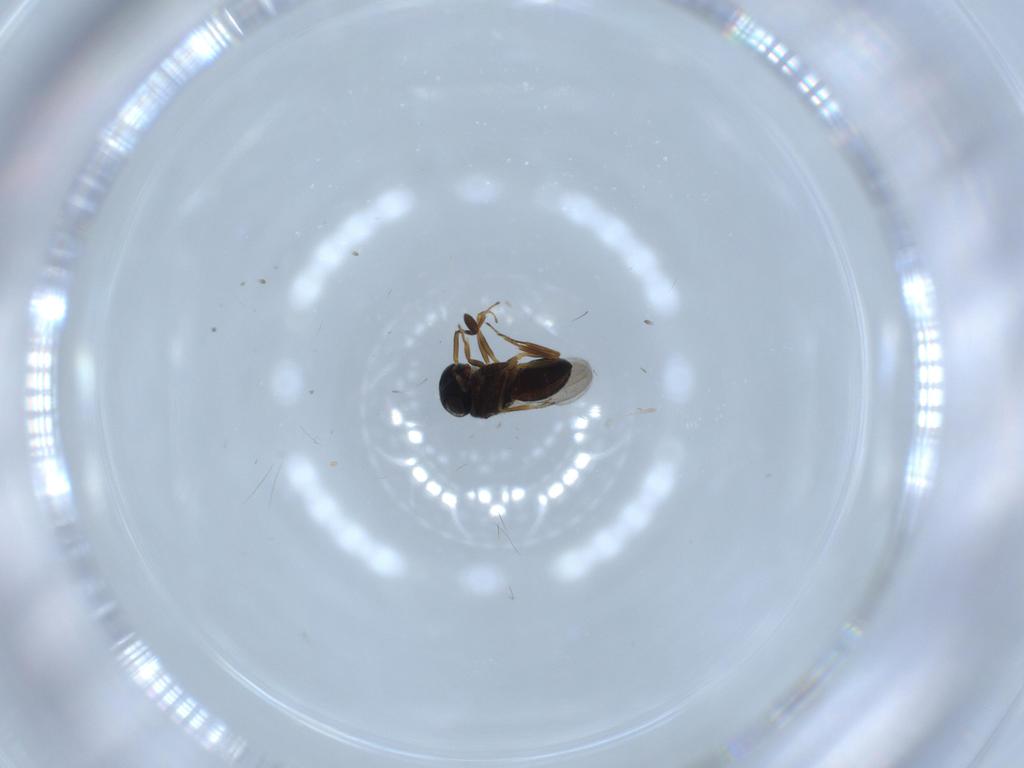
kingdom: Animalia
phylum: Arthropoda
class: Insecta
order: Coleoptera
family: Curculionidae
